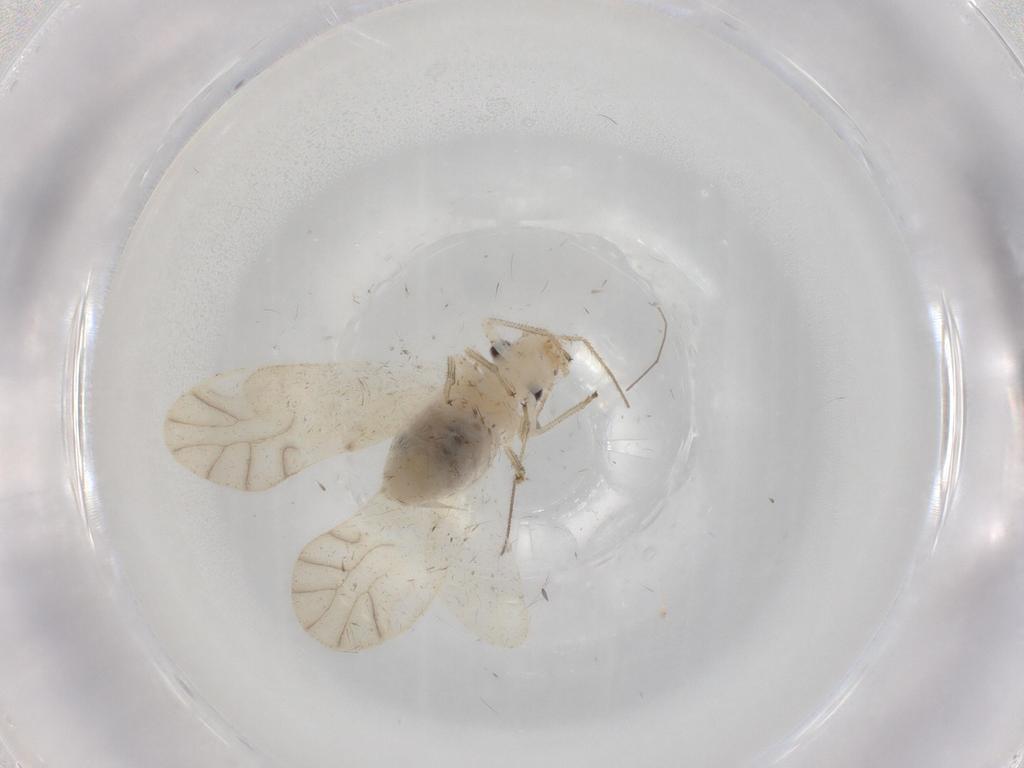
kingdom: Animalia
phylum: Arthropoda
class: Insecta
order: Psocodea
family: Caeciliusidae
